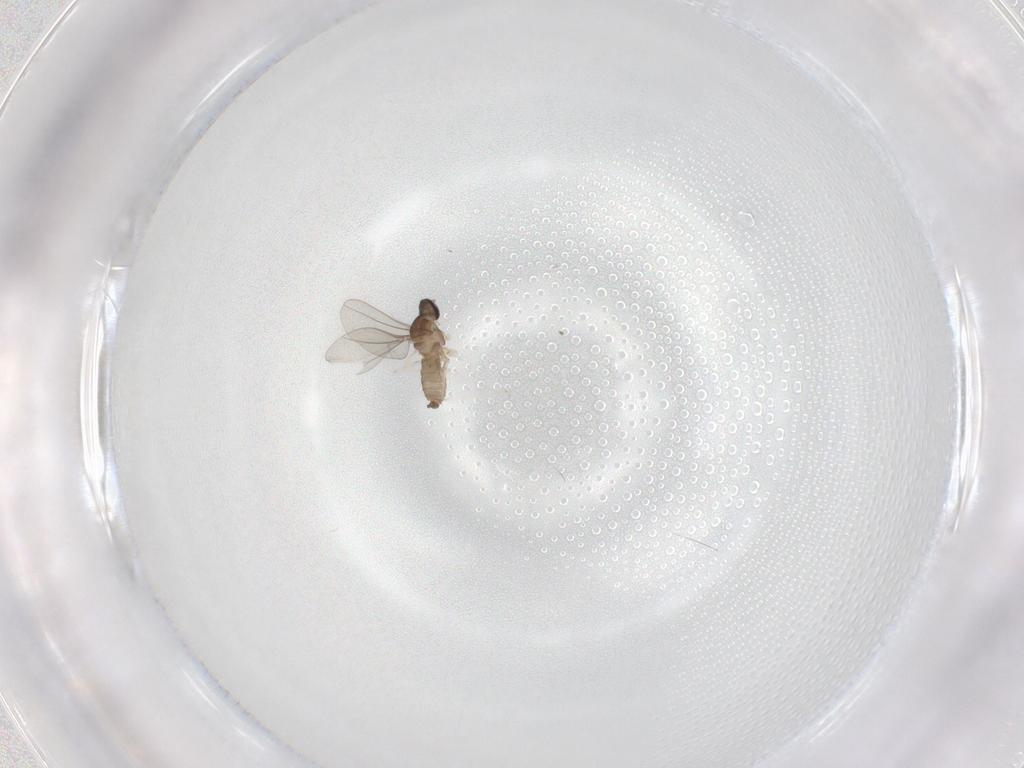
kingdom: Animalia
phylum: Arthropoda
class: Insecta
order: Diptera
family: Cecidomyiidae
